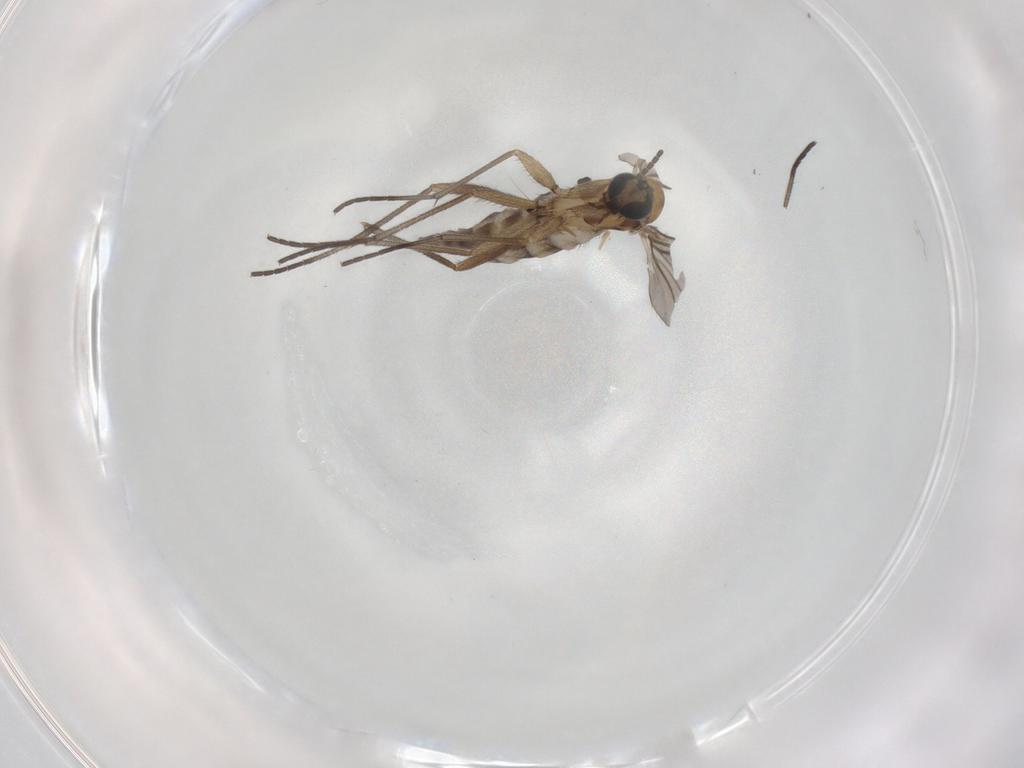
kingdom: Animalia
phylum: Arthropoda
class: Insecta
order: Diptera
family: Sciaridae
